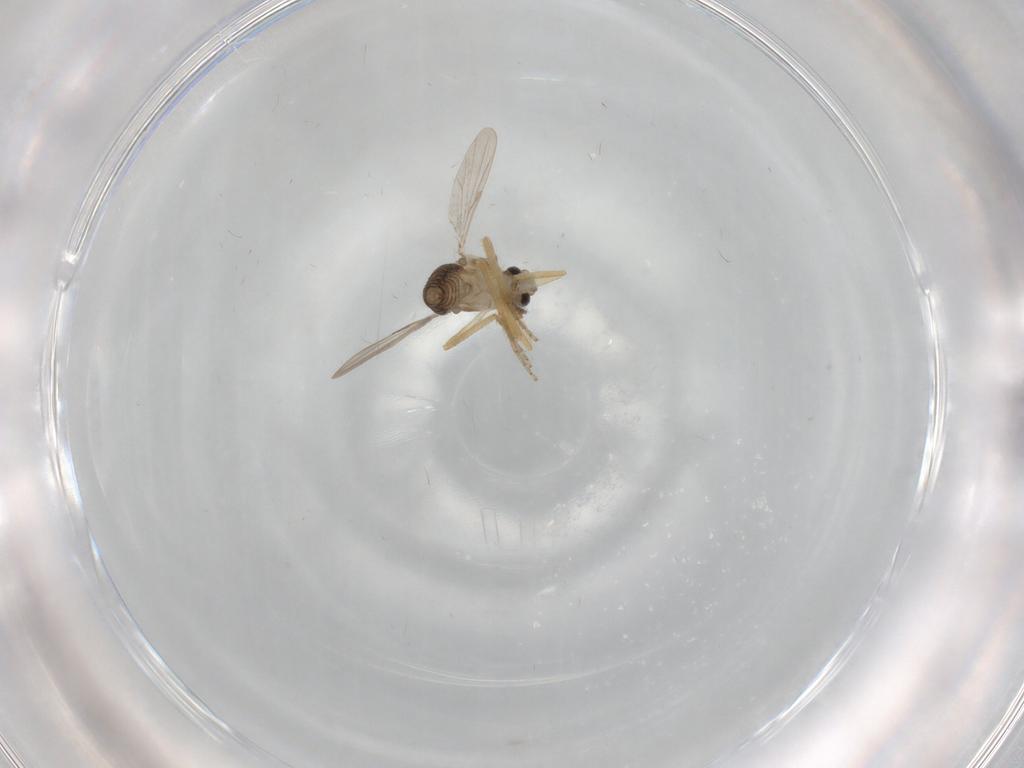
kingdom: Animalia
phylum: Arthropoda
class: Insecta
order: Diptera
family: Ceratopogonidae
